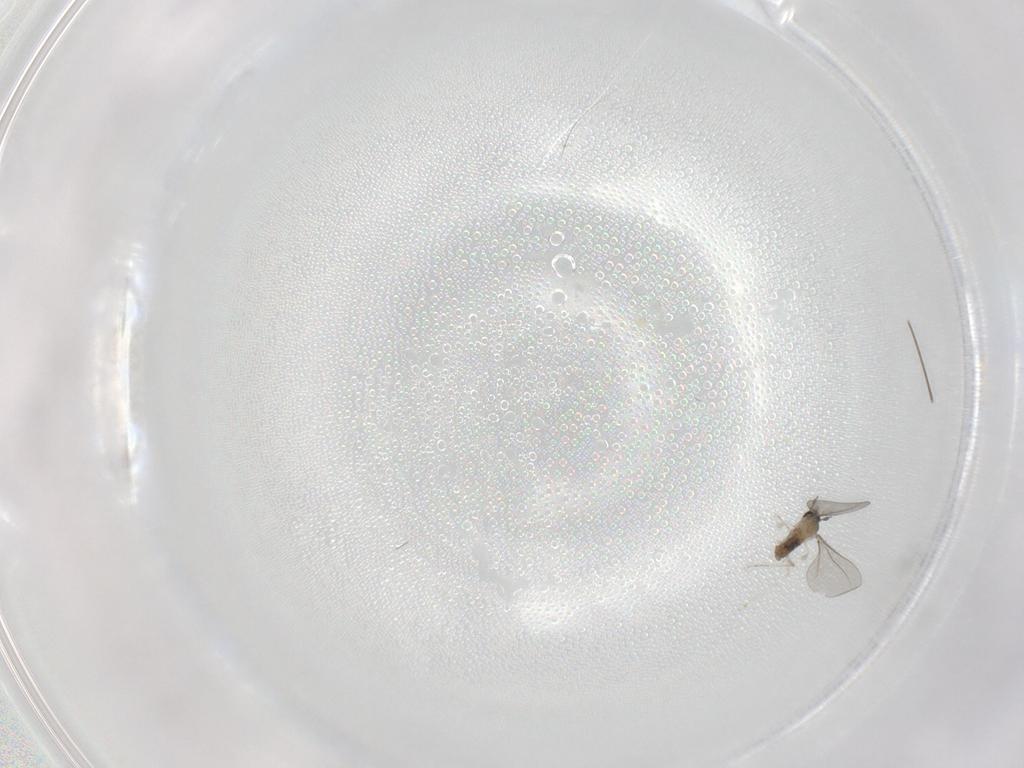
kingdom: Animalia
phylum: Arthropoda
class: Insecta
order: Diptera
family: Cecidomyiidae
